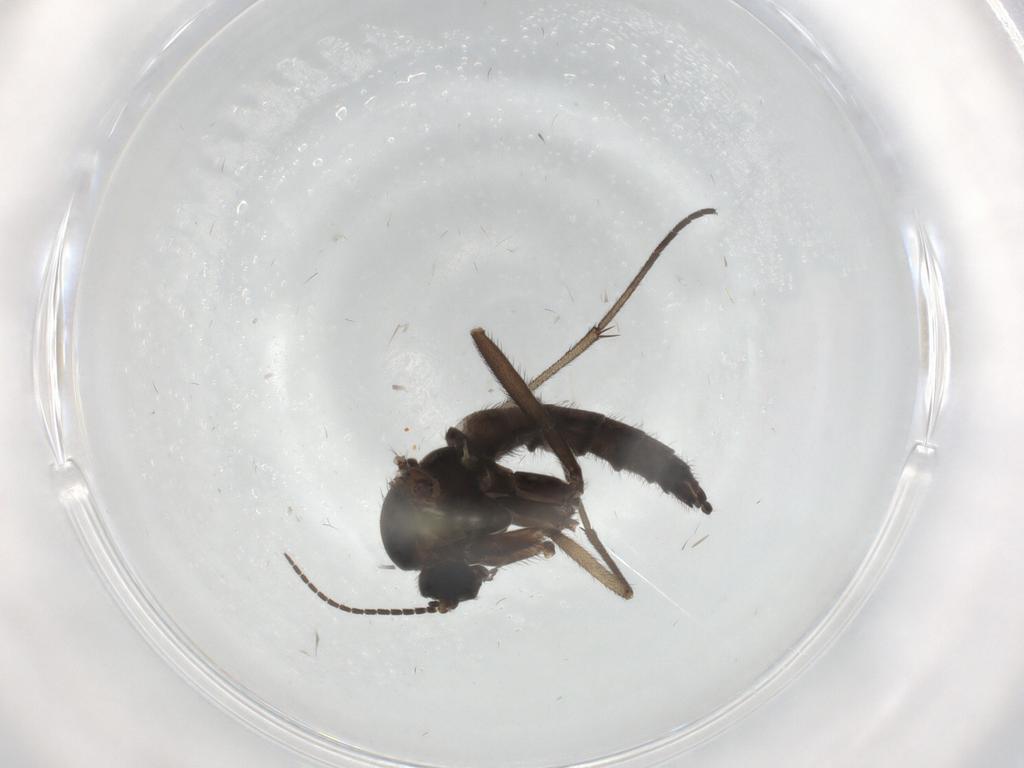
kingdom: Animalia
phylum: Arthropoda
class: Insecta
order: Diptera
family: Sciaridae
